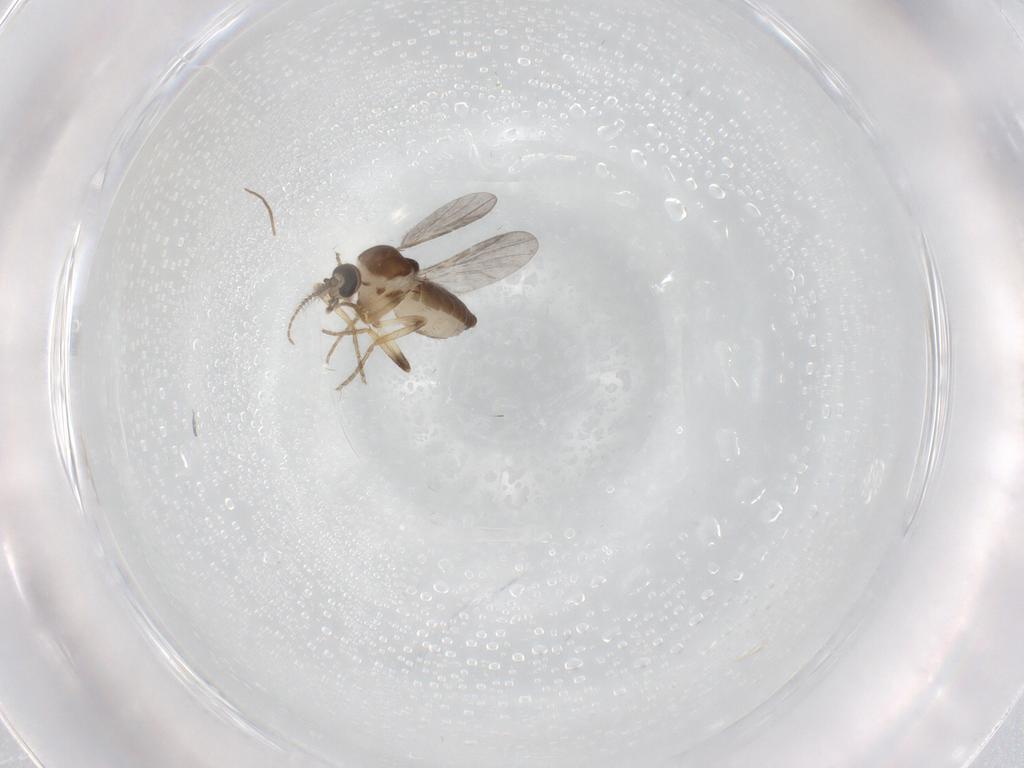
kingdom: Animalia
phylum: Arthropoda
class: Insecta
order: Diptera
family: Ceratopogonidae
